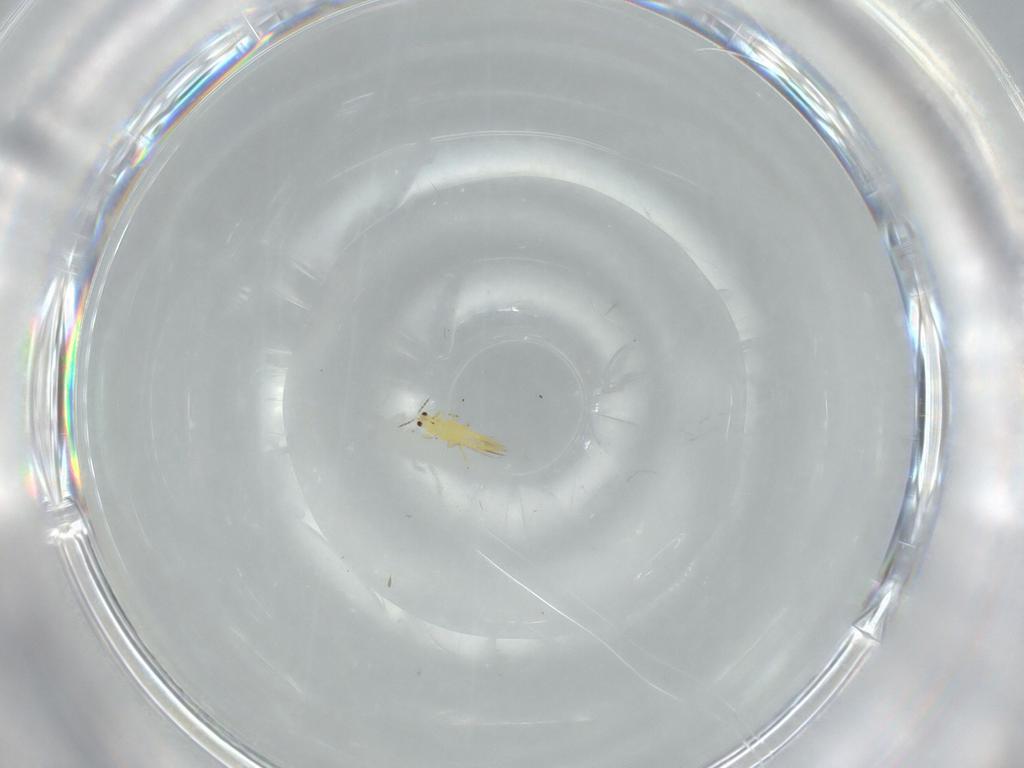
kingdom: Animalia
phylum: Arthropoda
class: Insecta
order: Thysanoptera
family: Thripidae
